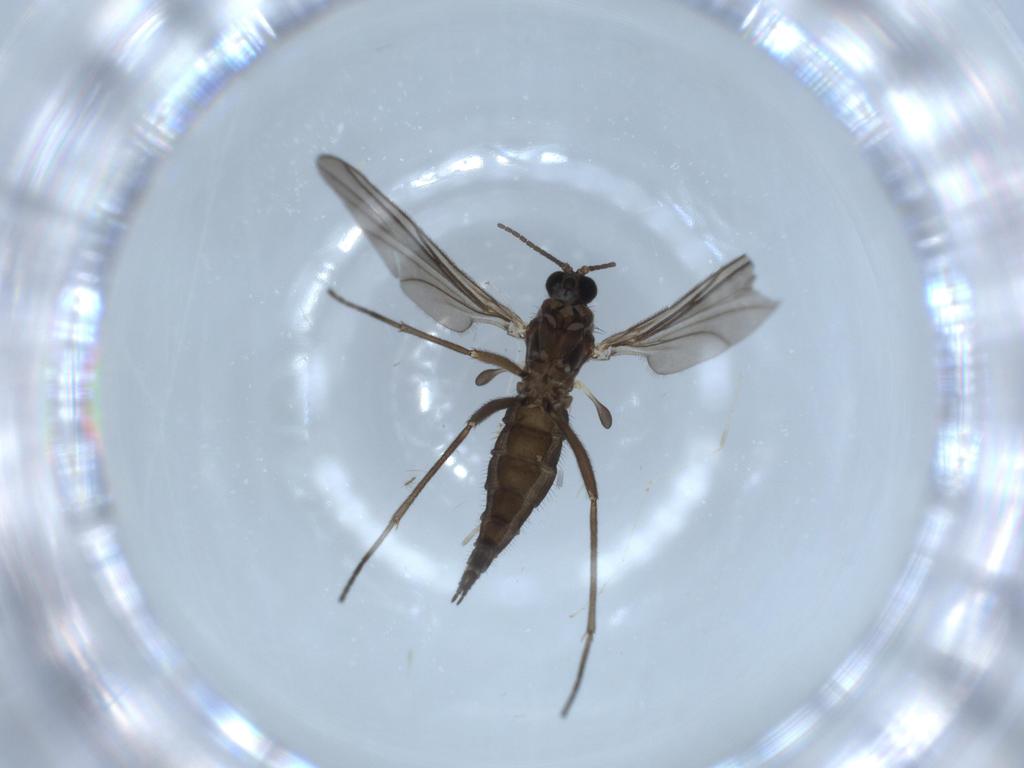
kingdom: Animalia
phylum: Arthropoda
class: Insecta
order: Diptera
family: Sciaridae
